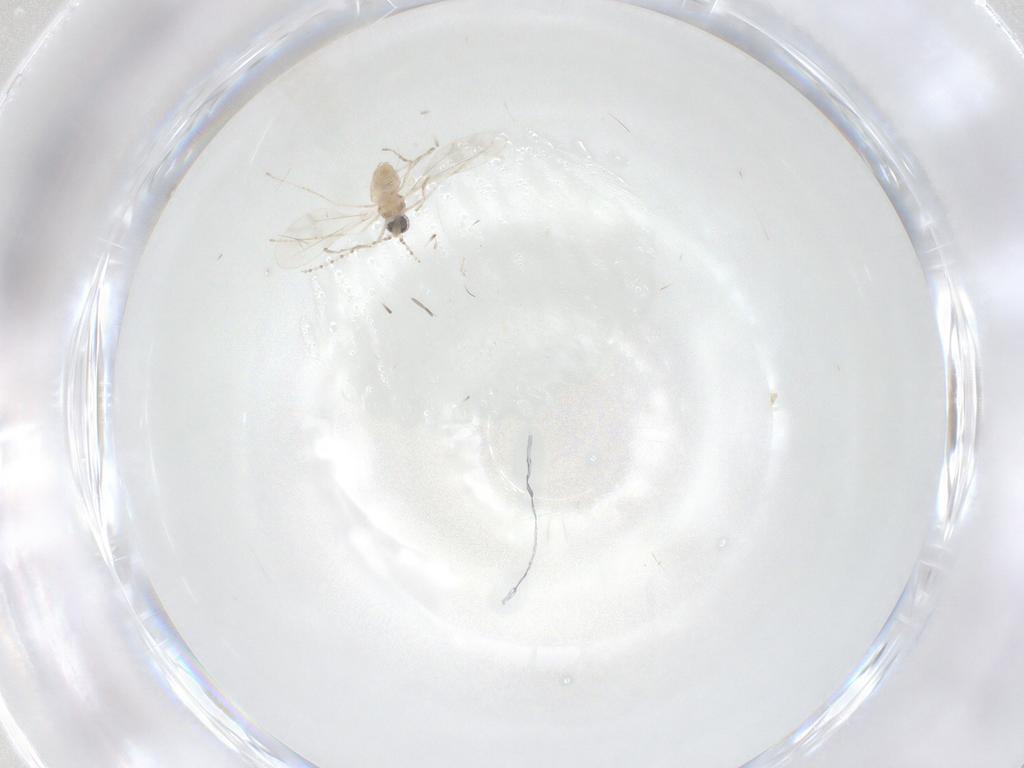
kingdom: Animalia
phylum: Arthropoda
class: Insecta
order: Diptera
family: Cecidomyiidae
